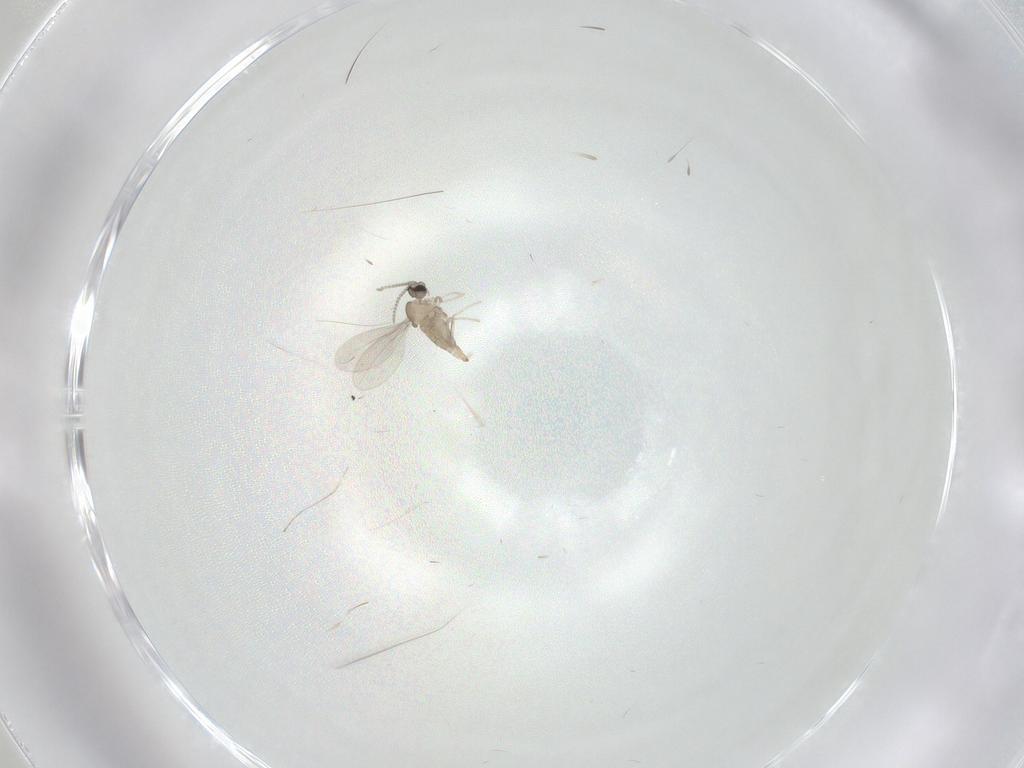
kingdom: Animalia
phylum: Arthropoda
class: Insecta
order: Diptera
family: Cecidomyiidae
